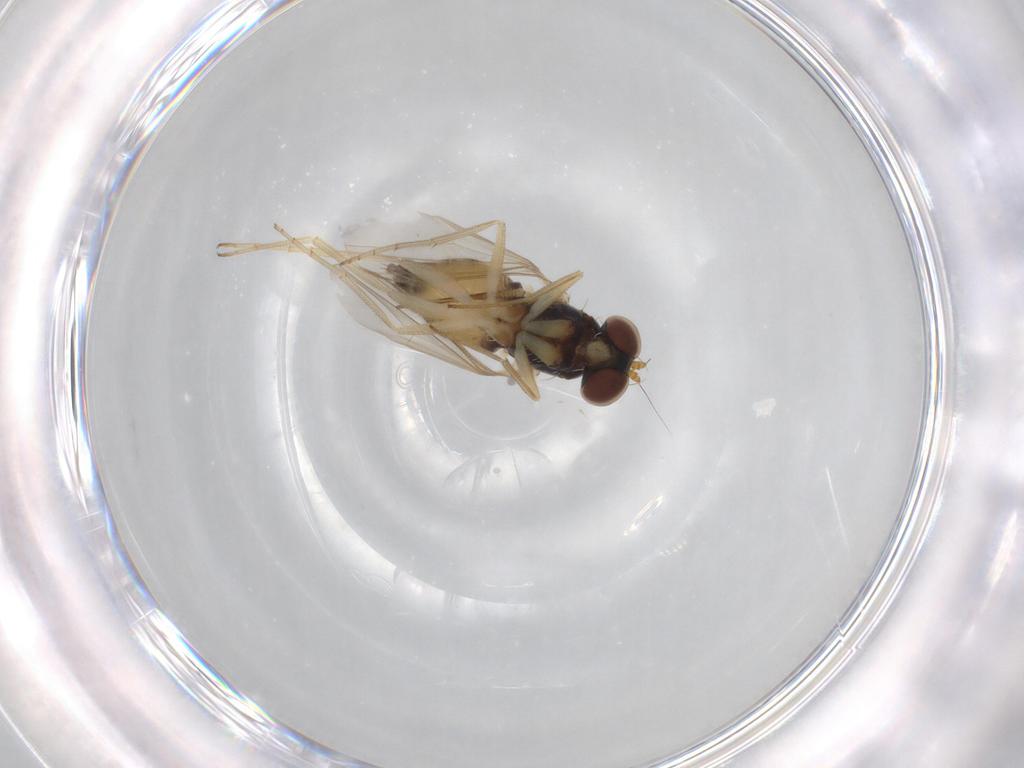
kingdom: Animalia
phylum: Arthropoda
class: Insecta
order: Diptera
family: Dolichopodidae
